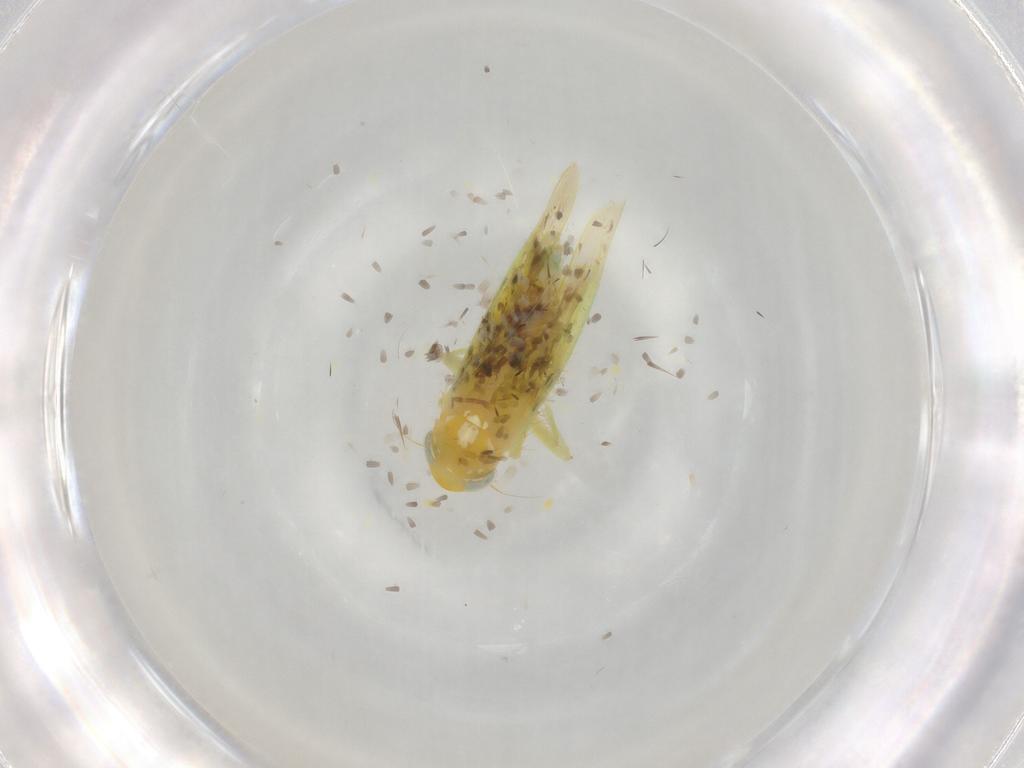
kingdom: Animalia
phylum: Arthropoda
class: Insecta
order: Hemiptera
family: Cicadellidae
